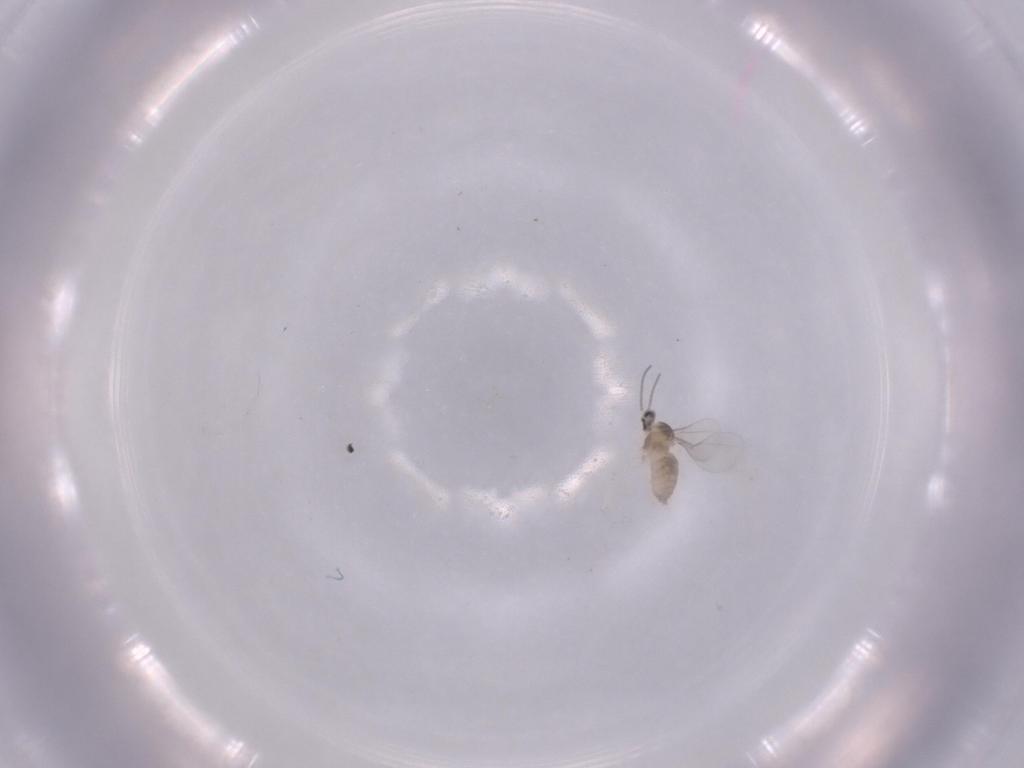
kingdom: Animalia
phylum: Arthropoda
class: Insecta
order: Diptera
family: Cecidomyiidae
